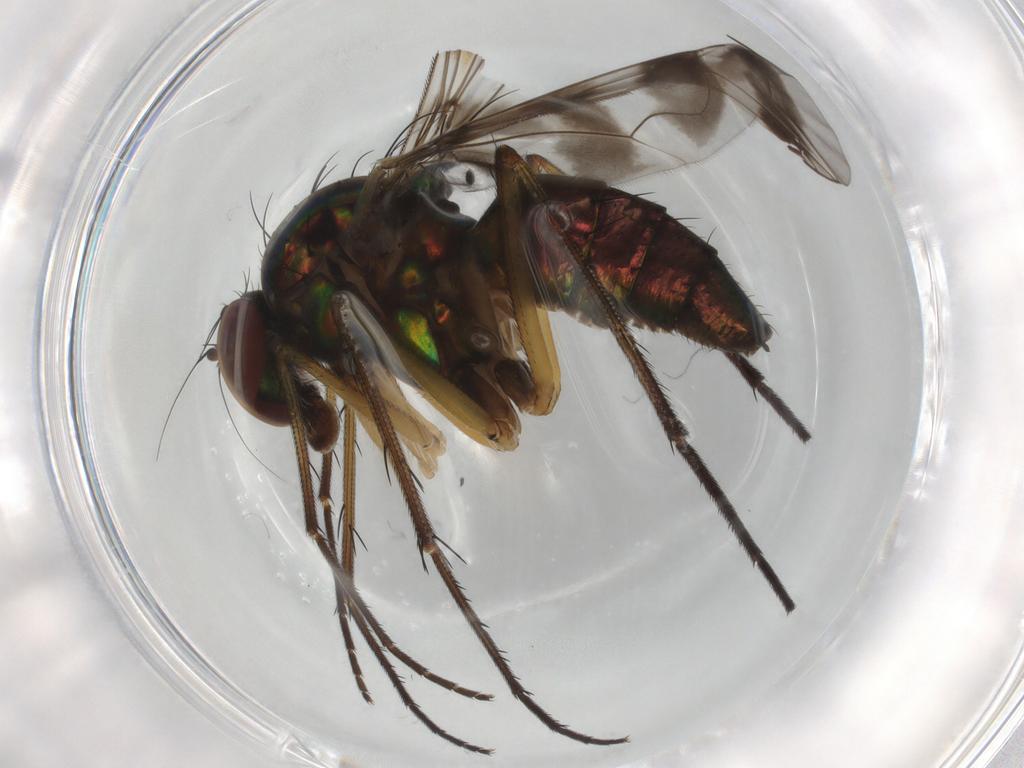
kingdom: Animalia
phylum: Arthropoda
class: Insecta
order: Diptera
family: Dolichopodidae
